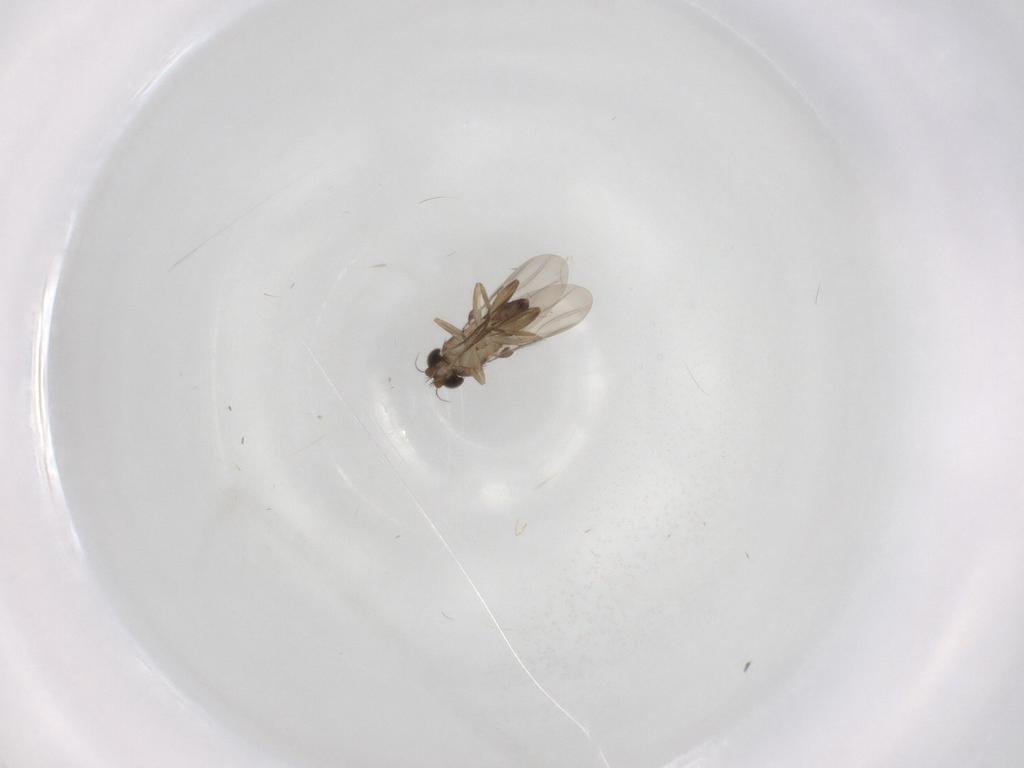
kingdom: Animalia
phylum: Arthropoda
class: Insecta
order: Diptera
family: Phoridae
